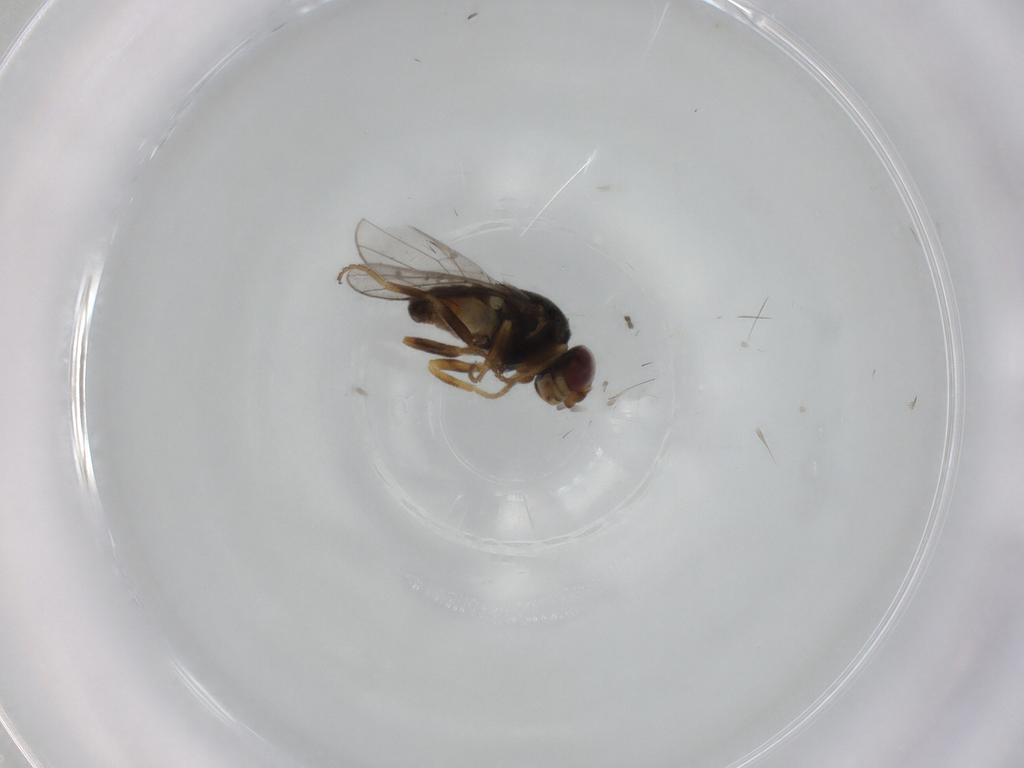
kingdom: Animalia
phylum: Arthropoda
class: Insecta
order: Diptera
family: Chloropidae
